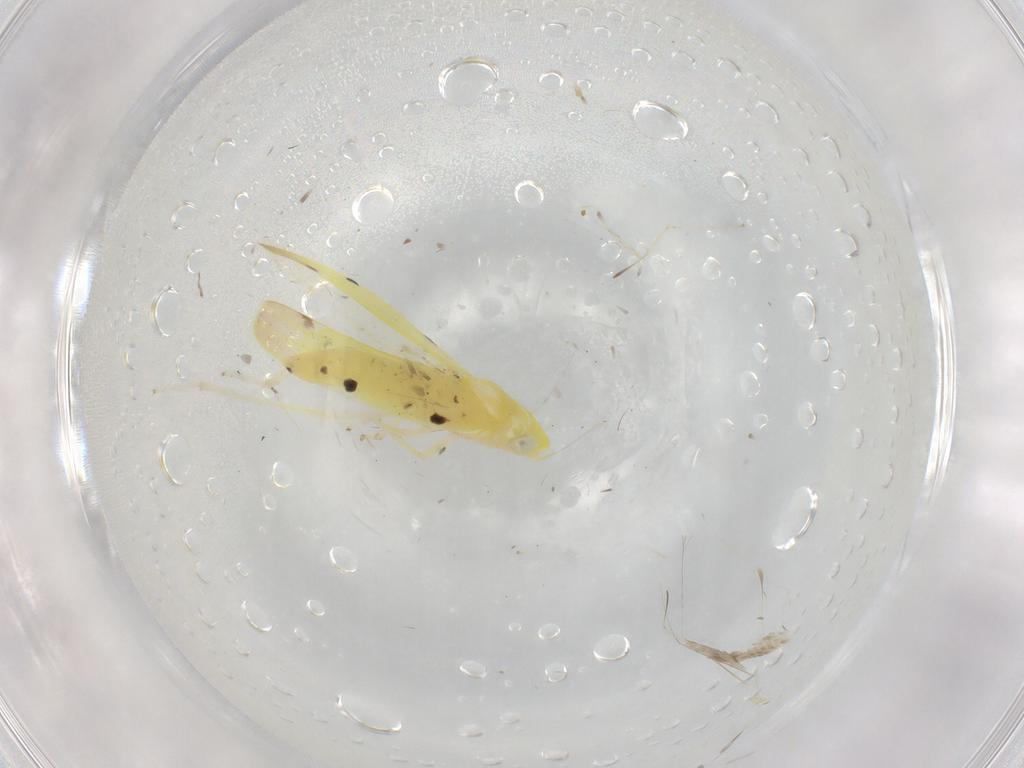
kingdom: Animalia
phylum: Arthropoda
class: Insecta
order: Hemiptera
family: Cicadellidae
